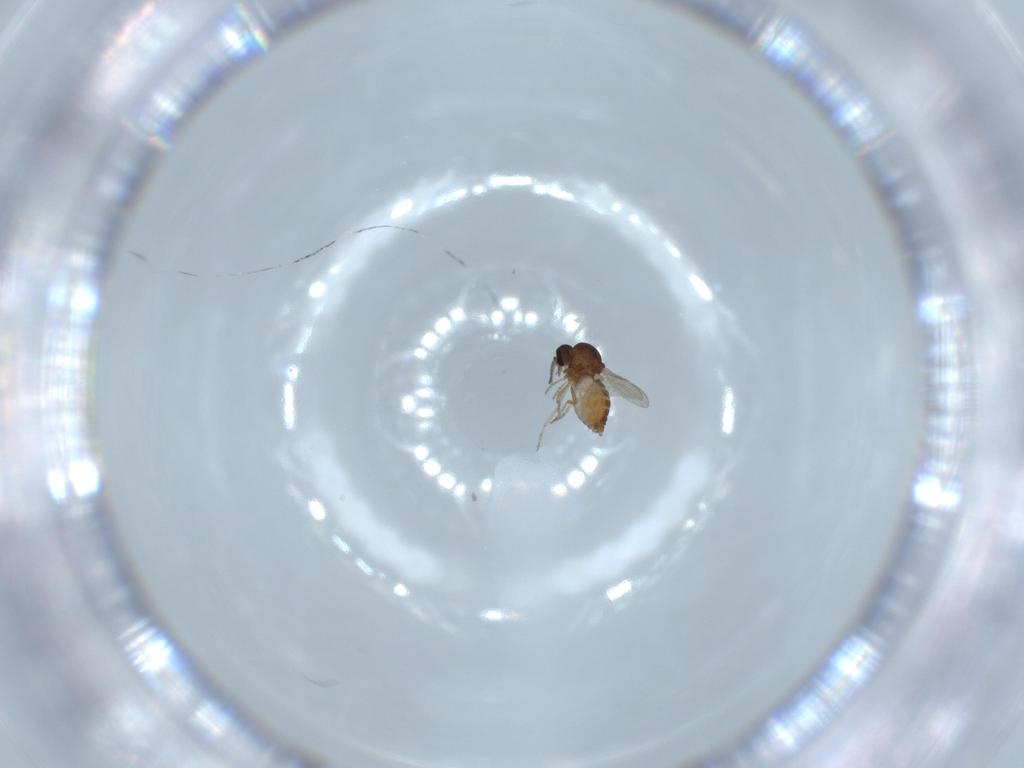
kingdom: Animalia
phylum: Arthropoda
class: Insecta
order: Diptera
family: Ceratopogonidae
